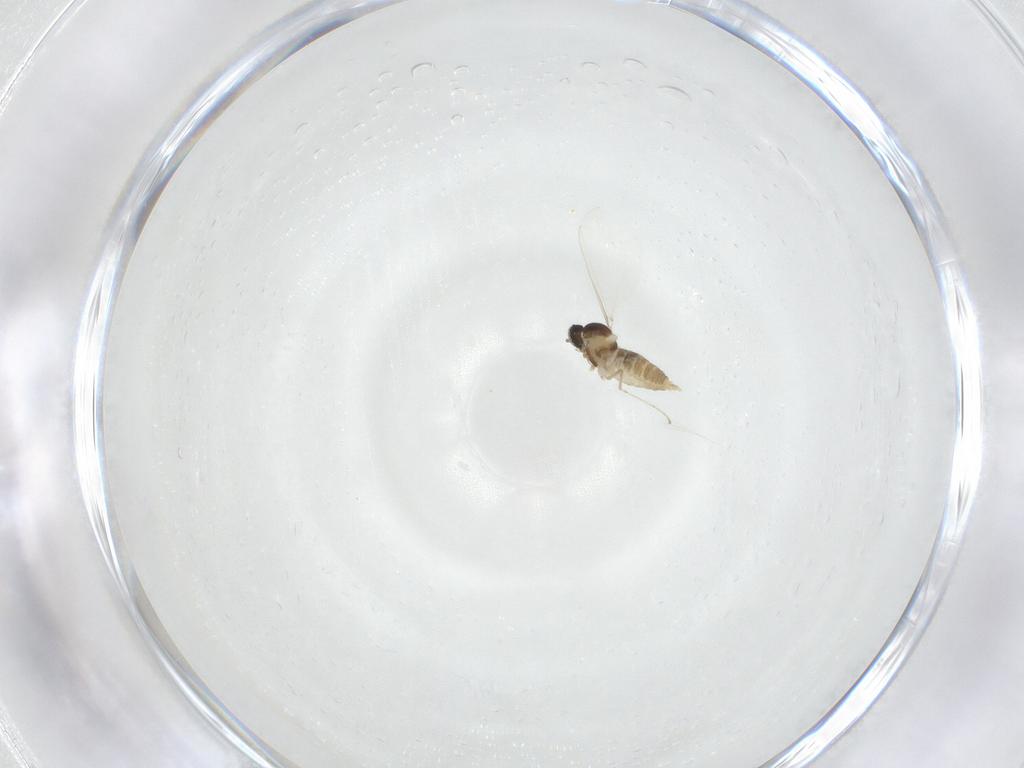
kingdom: Animalia
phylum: Arthropoda
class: Insecta
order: Diptera
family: Cecidomyiidae
